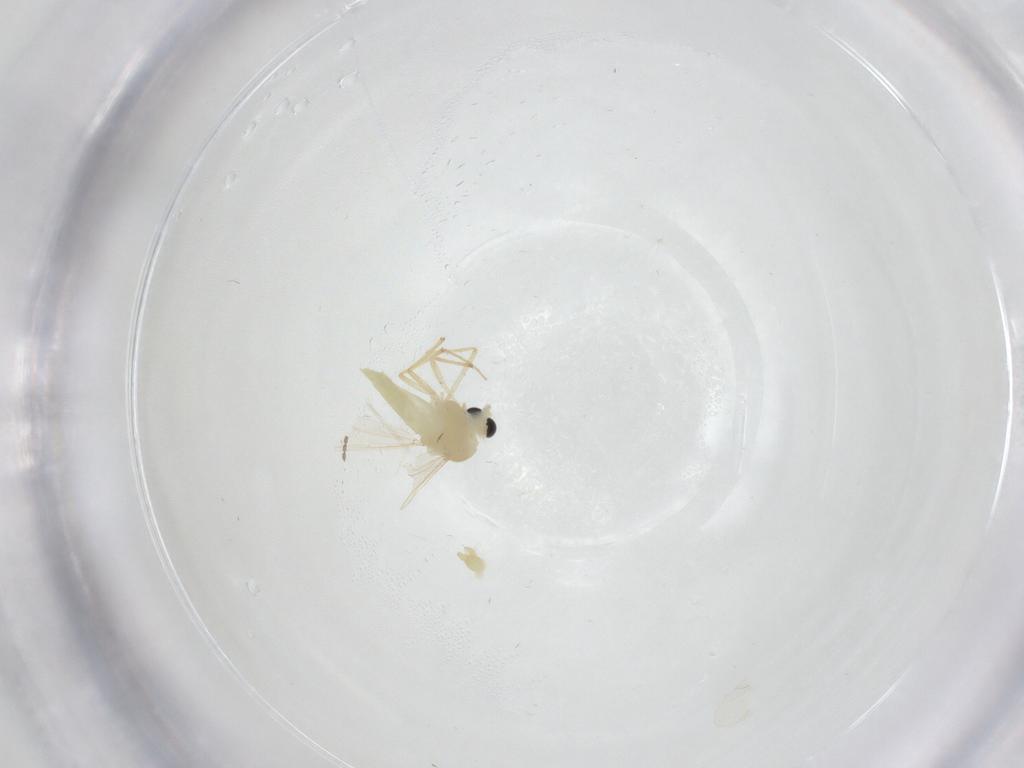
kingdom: Animalia
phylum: Arthropoda
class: Insecta
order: Diptera
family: Chironomidae
